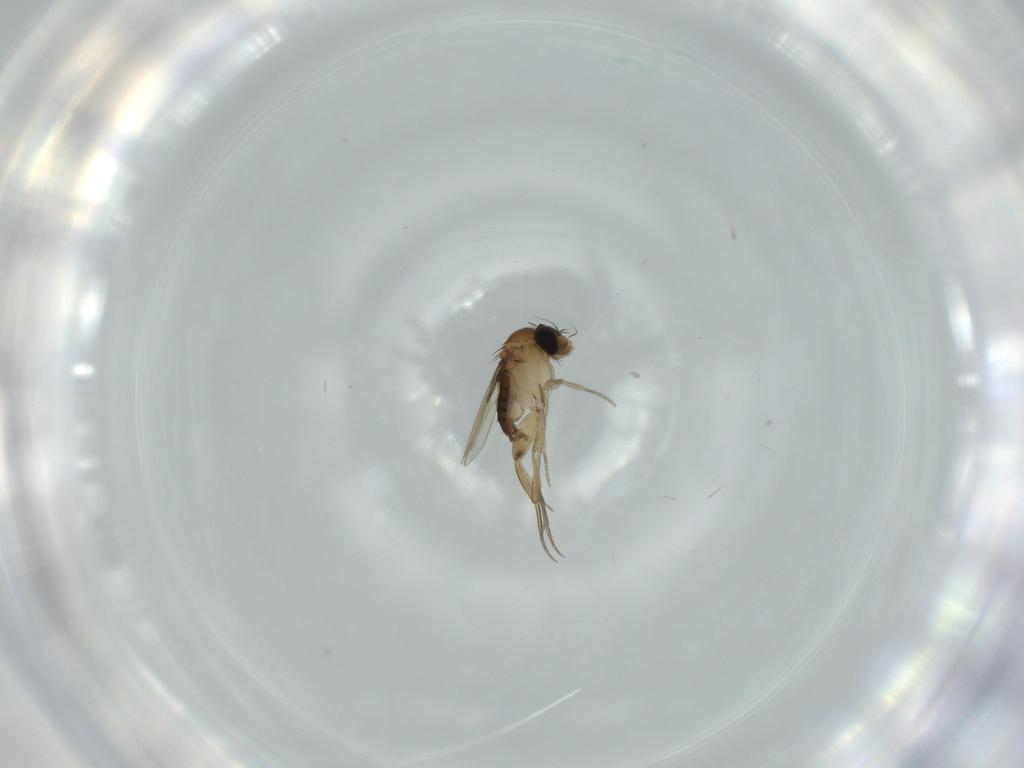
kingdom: Animalia
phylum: Arthropoda
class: Insecta
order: Diptera
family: Phoridae
